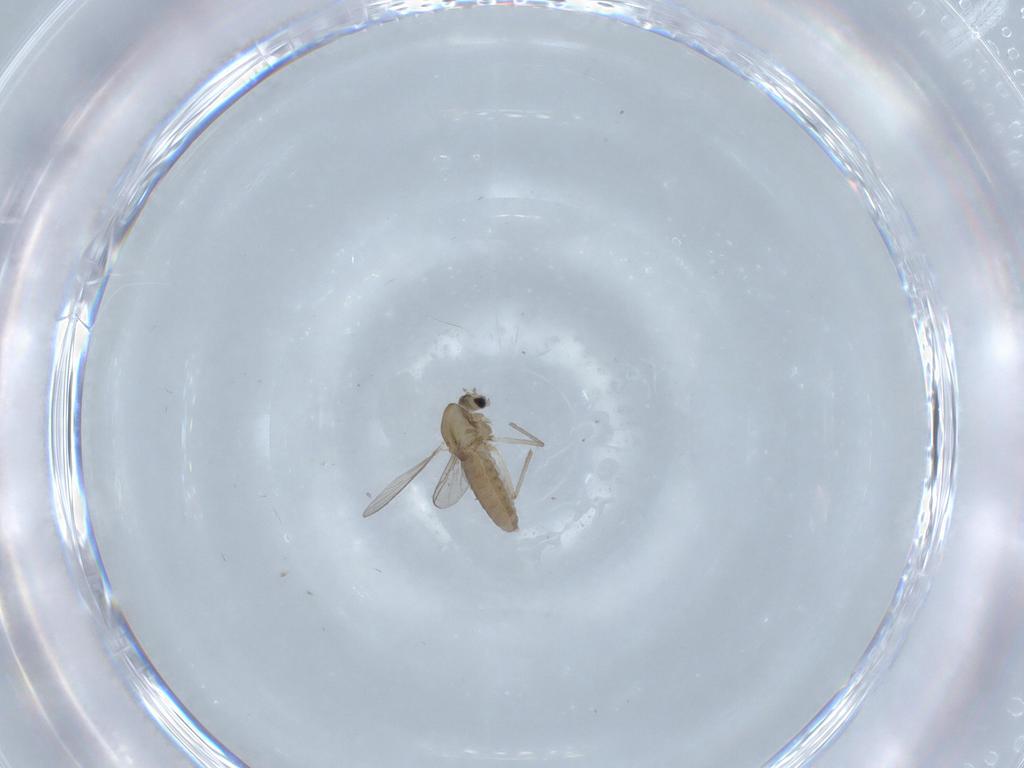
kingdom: Animalia
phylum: Arthropoda
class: Insecta
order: Diptera
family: Chironomidae
